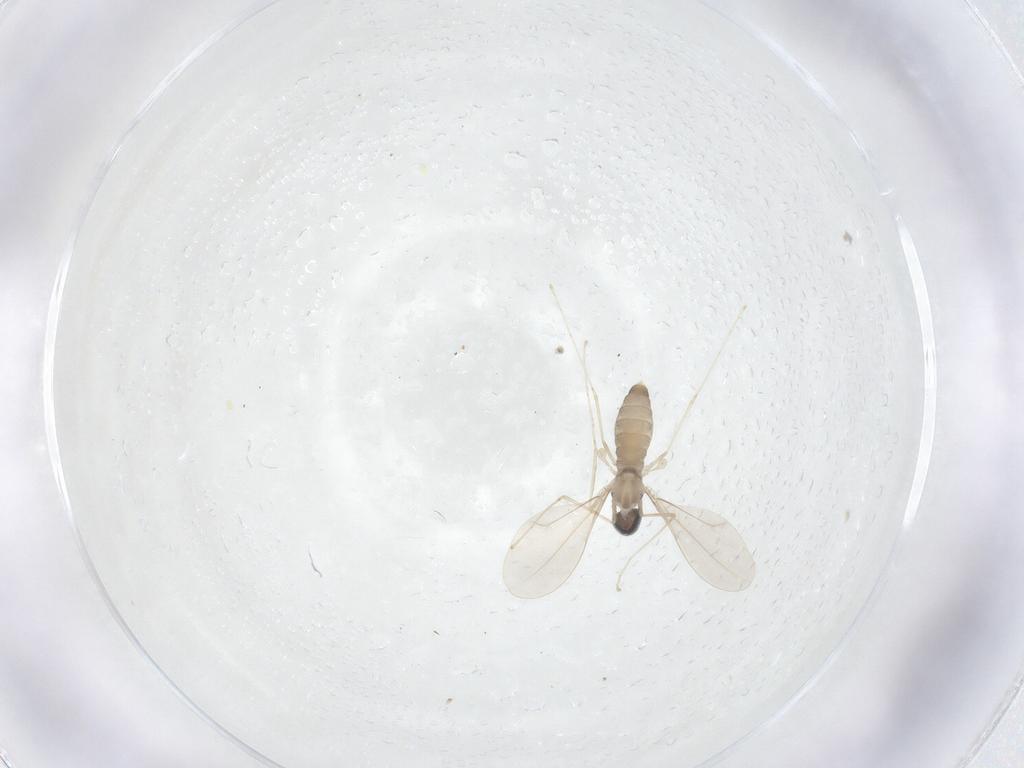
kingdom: Animalia
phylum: Arthropoda
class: Insecta
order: Diptera
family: Cecidomyiidae
